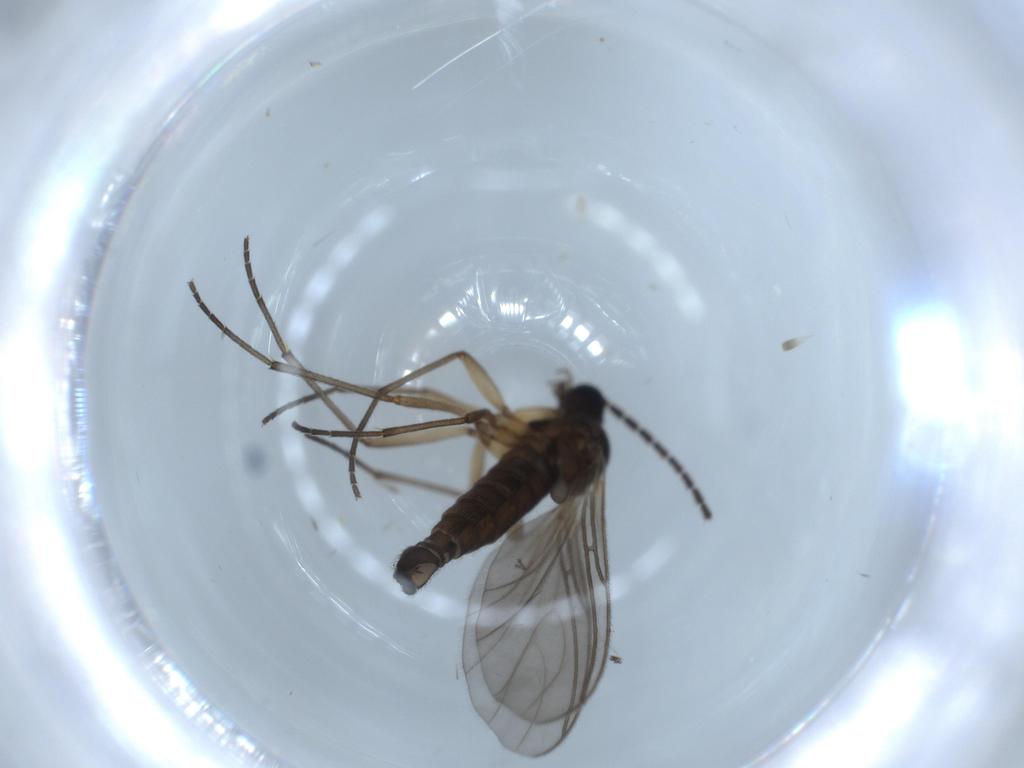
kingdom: Animalia
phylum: Arthropoda
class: Insecta
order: Diptera
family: Sciaridae
